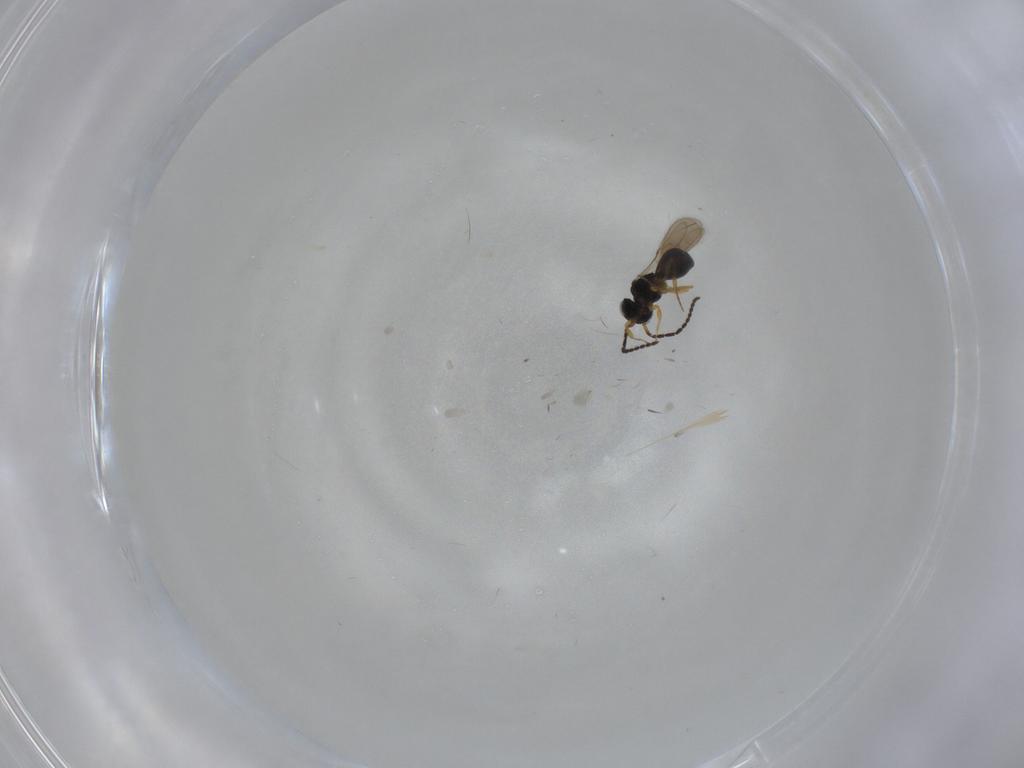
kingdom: Animalia
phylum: Arthropoda
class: Insecta
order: Hymenoptera
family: Scelionidae
